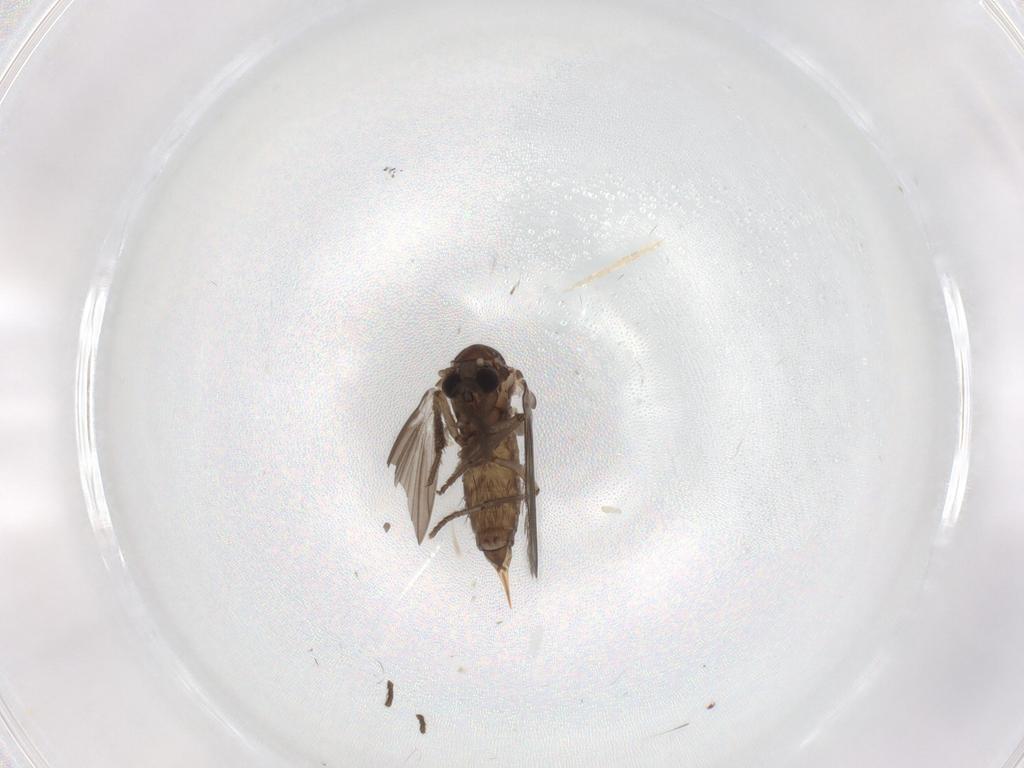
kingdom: Animalia
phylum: Arthropoda
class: Insecta
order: Diptera
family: Psychodidae
